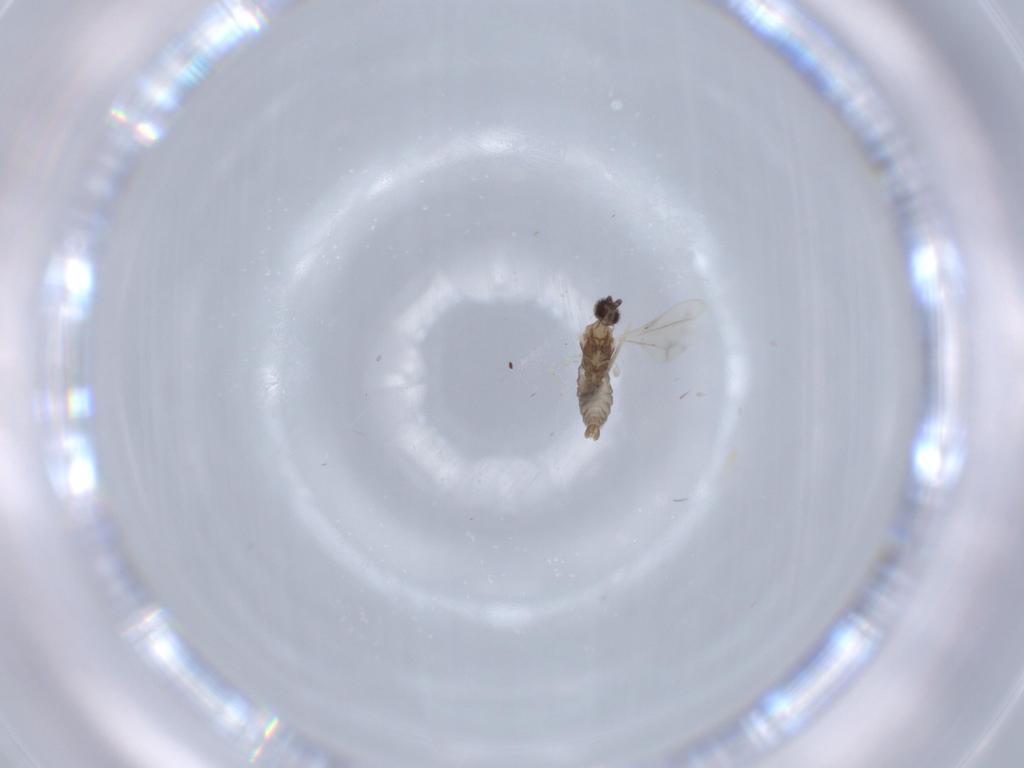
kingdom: Animalia
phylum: Arthropoda
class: Insecta
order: Diptera
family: Cecidomyiidae
